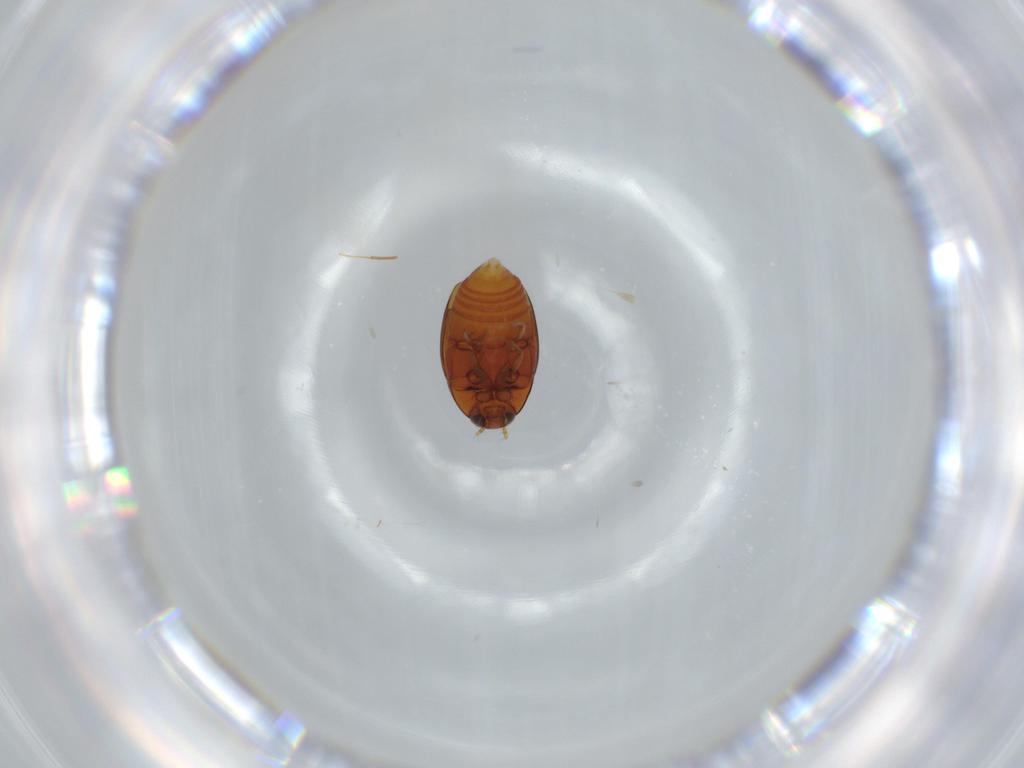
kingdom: Animalia
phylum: Arthropoda
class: Insecta
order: Coleoptera
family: Staphylinidae
